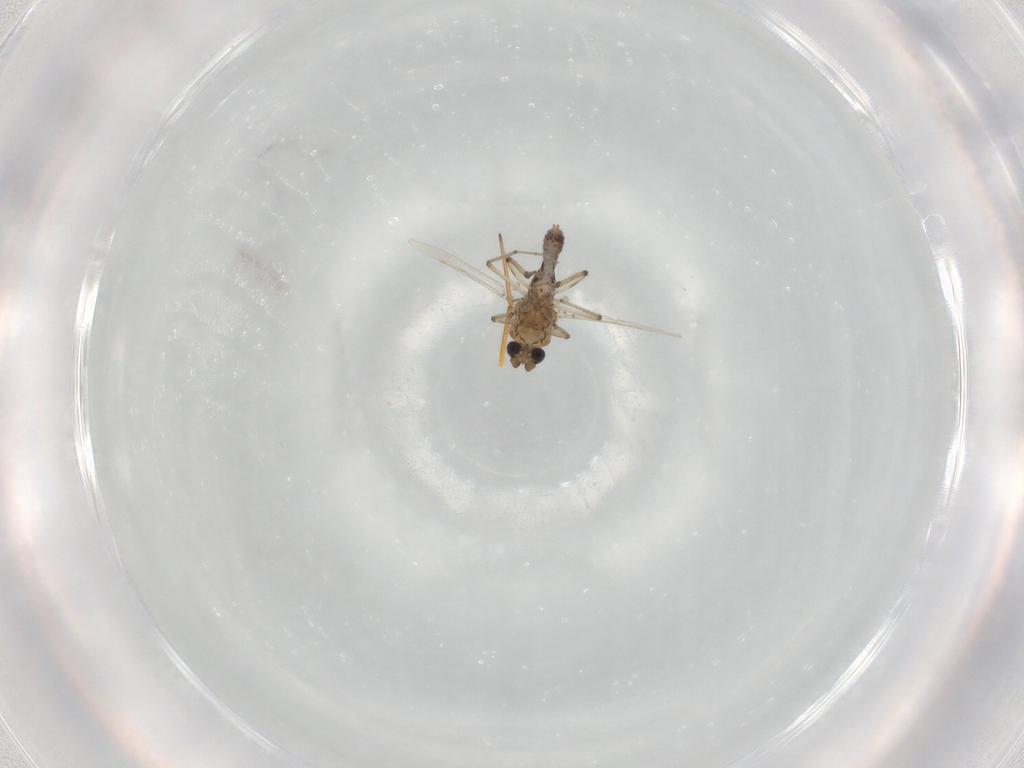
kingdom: Animalia
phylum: Arthropoda
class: Insecta
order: Diptera
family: Ceratopogonidae
